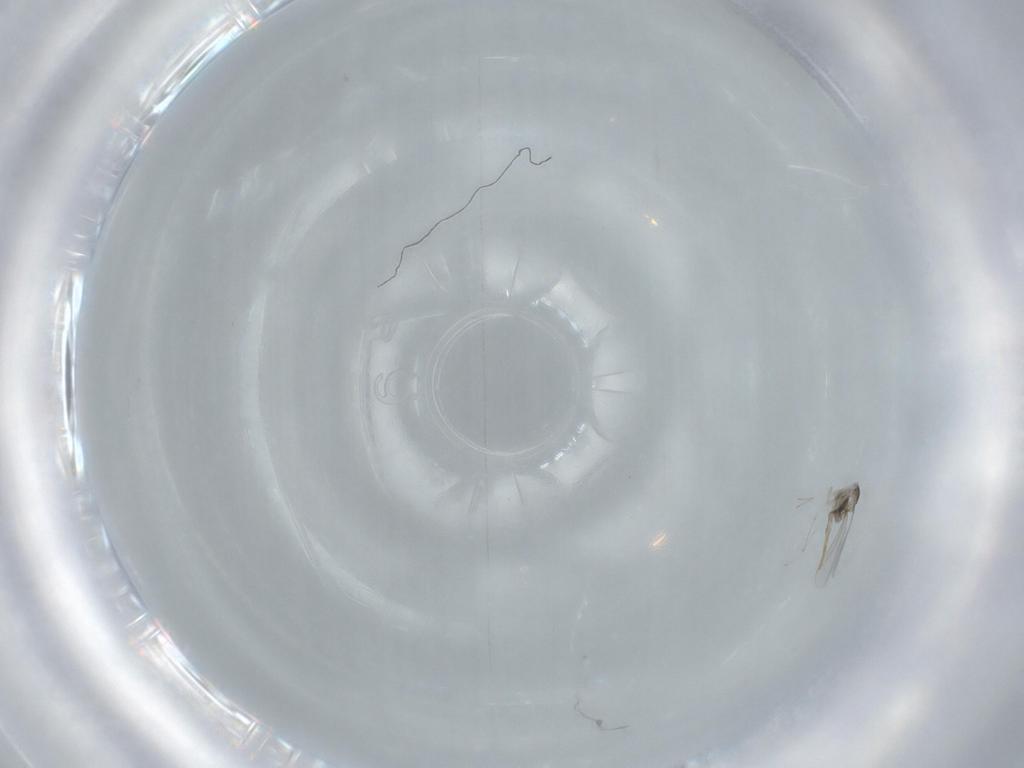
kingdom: Animalia
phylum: Arthropoda
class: Insecta
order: Diptera
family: Cecidomyiidae
